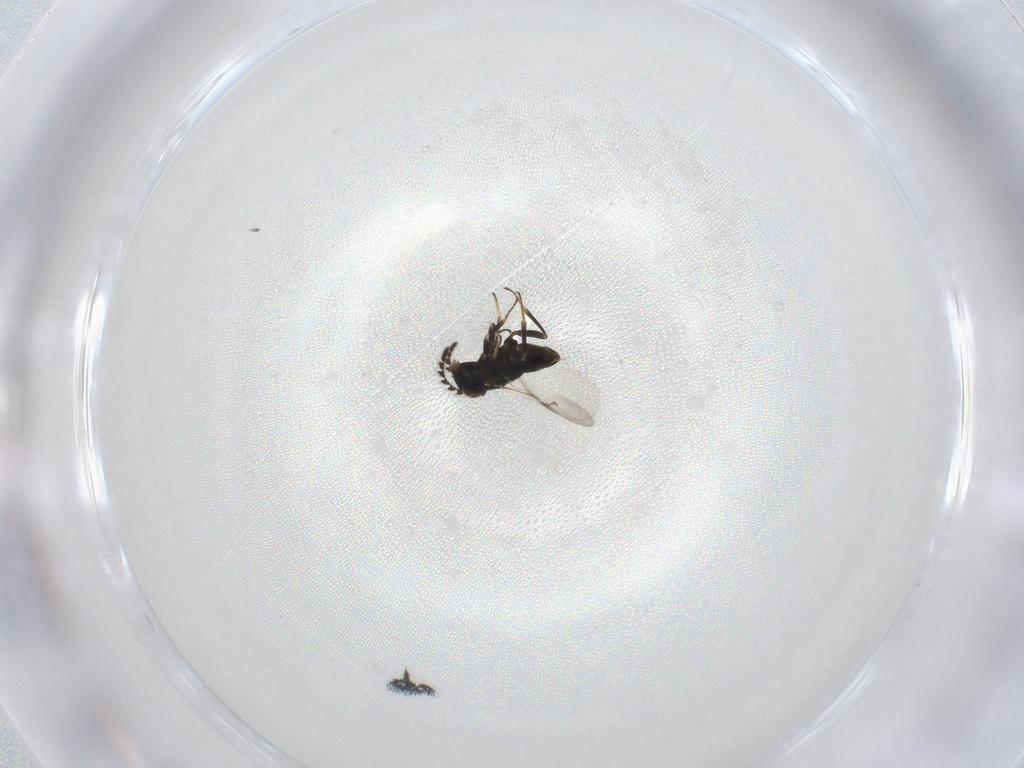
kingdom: Animalia
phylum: Arthropoda
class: Insecta
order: Hymenoptera
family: Encyrtidae
